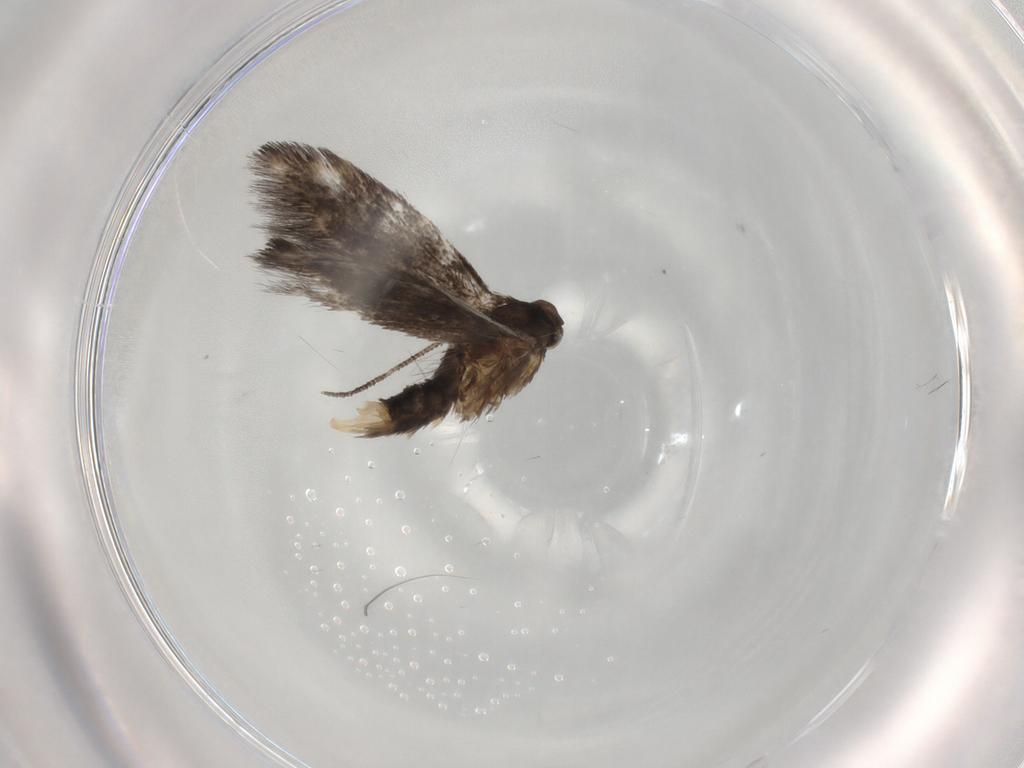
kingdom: Animalia
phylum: Arthropoda
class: Insecta
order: Lepidoptera
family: Elachistidae
